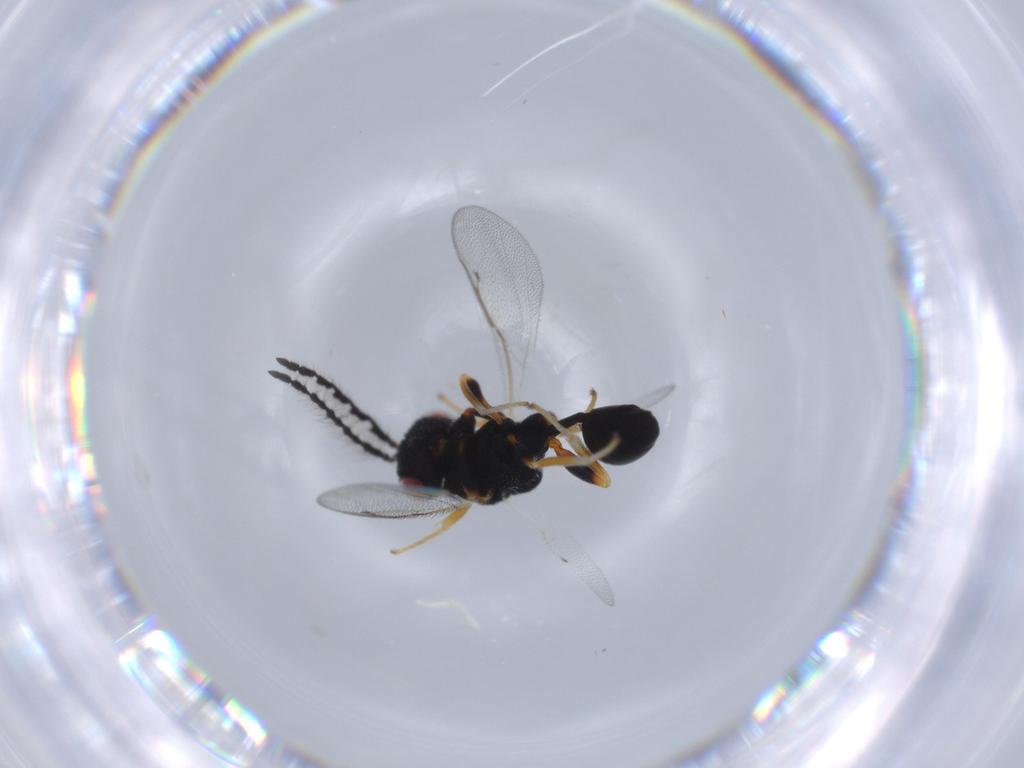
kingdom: Animalia
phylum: Arthropoda
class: Insecta
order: Hymenoptera
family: Eurytomidae
